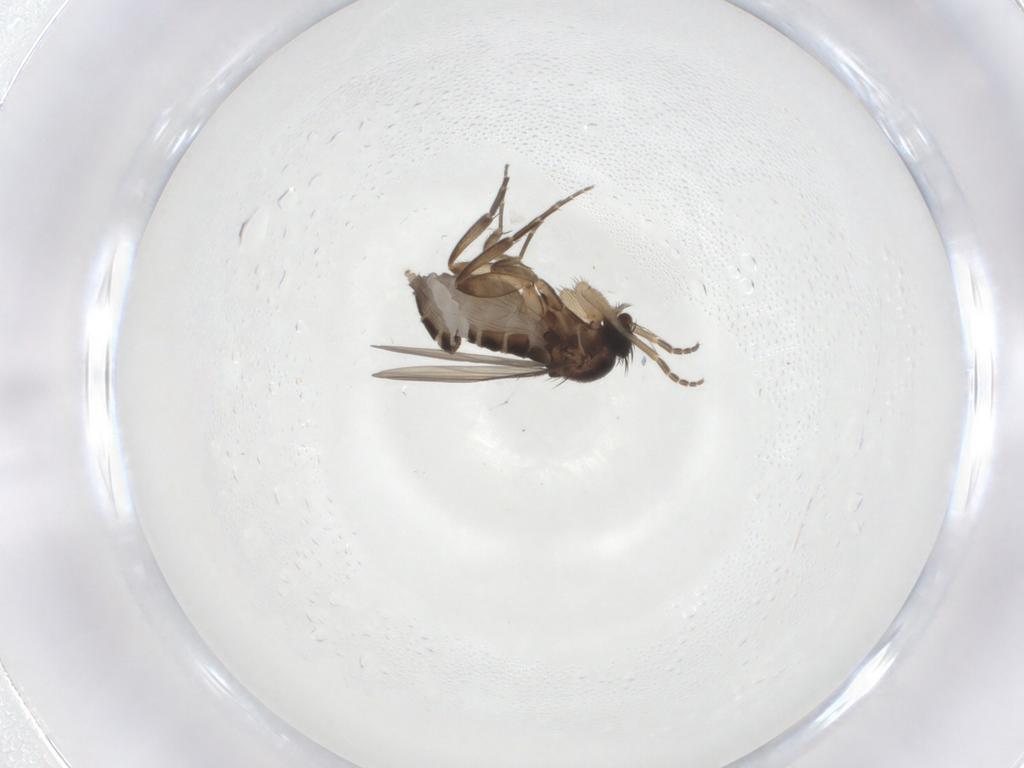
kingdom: Animalia
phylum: Arthropoda
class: Insecta
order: Diptera
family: Phoridae
